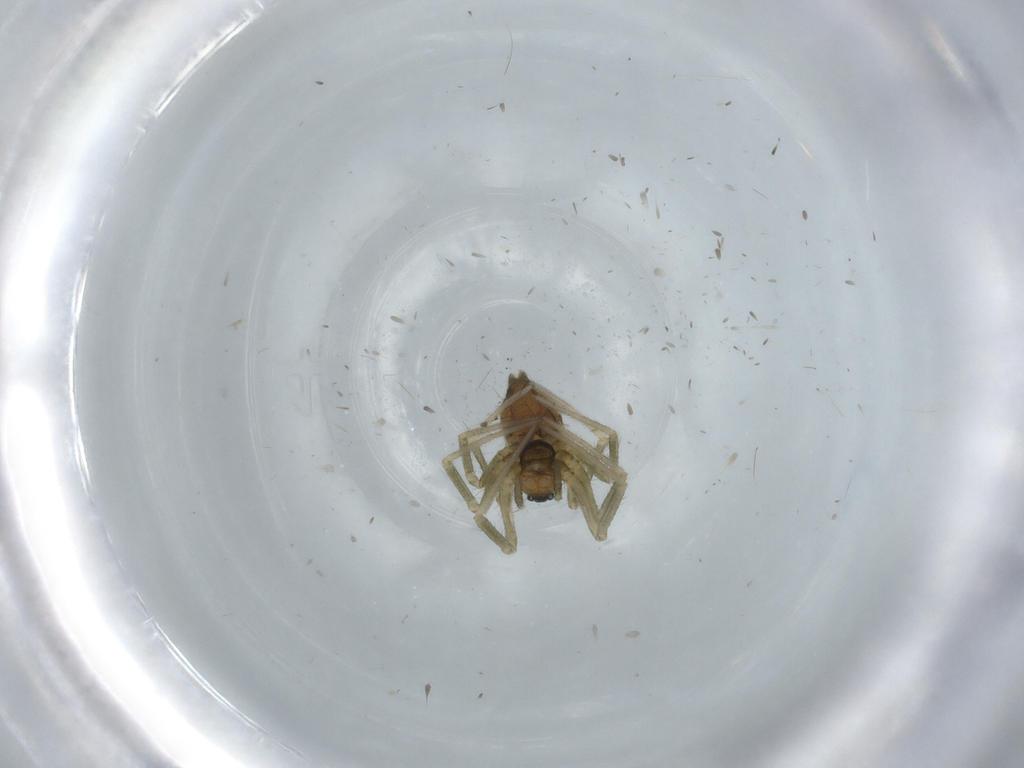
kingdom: Animalia
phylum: Arthropoda
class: Arachnida
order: Araneae
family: Linyphiidae
